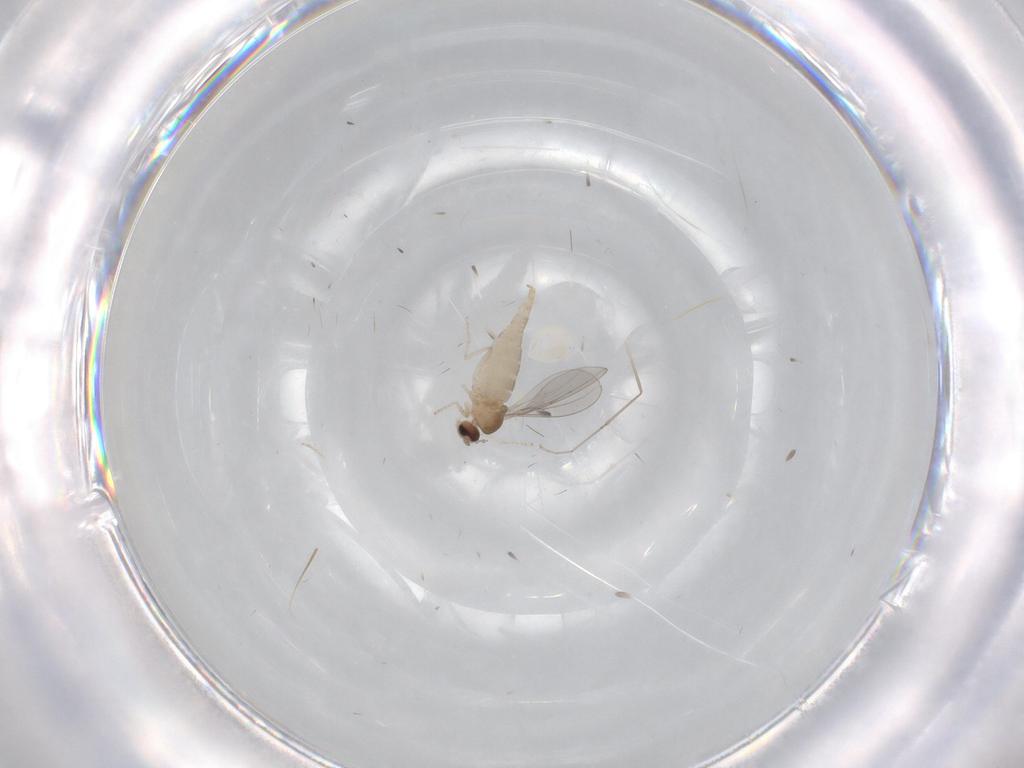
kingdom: Animalia
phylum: Arthropoda
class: Insecta
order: Diptera
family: Cecidomyiidae
